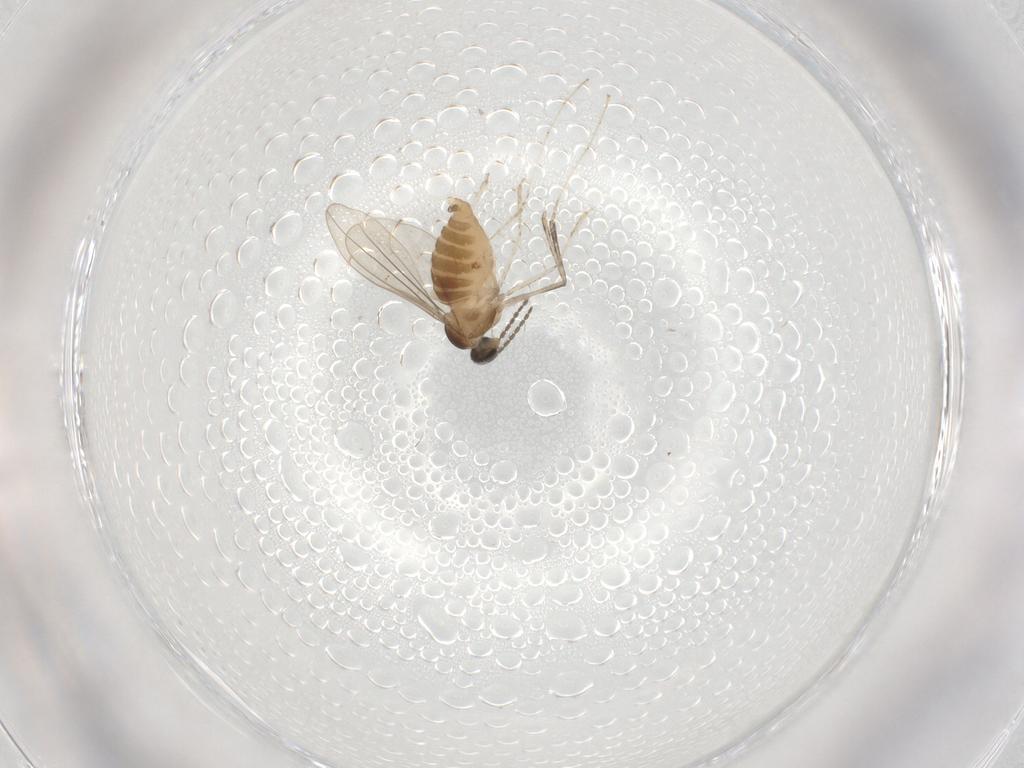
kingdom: Animalia
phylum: Arthropoda
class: Insecta
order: Diptera
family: Cecidomyiidae
